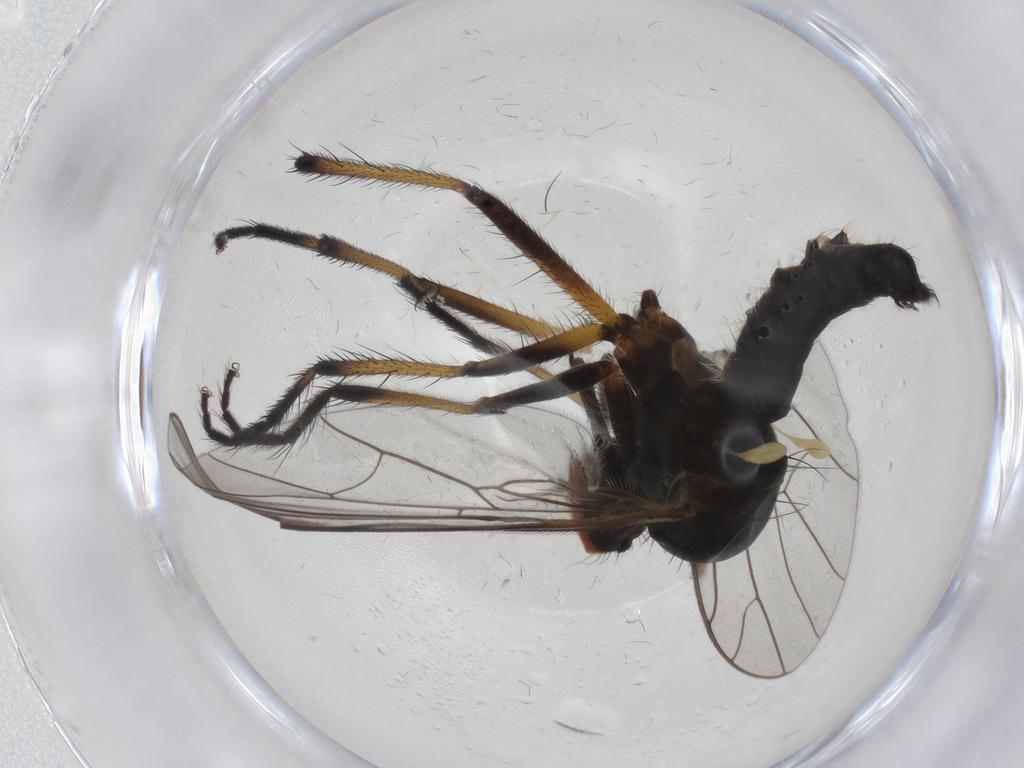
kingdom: Animalia
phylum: Arthropoda
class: Insecta
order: Diptera
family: Empididae
